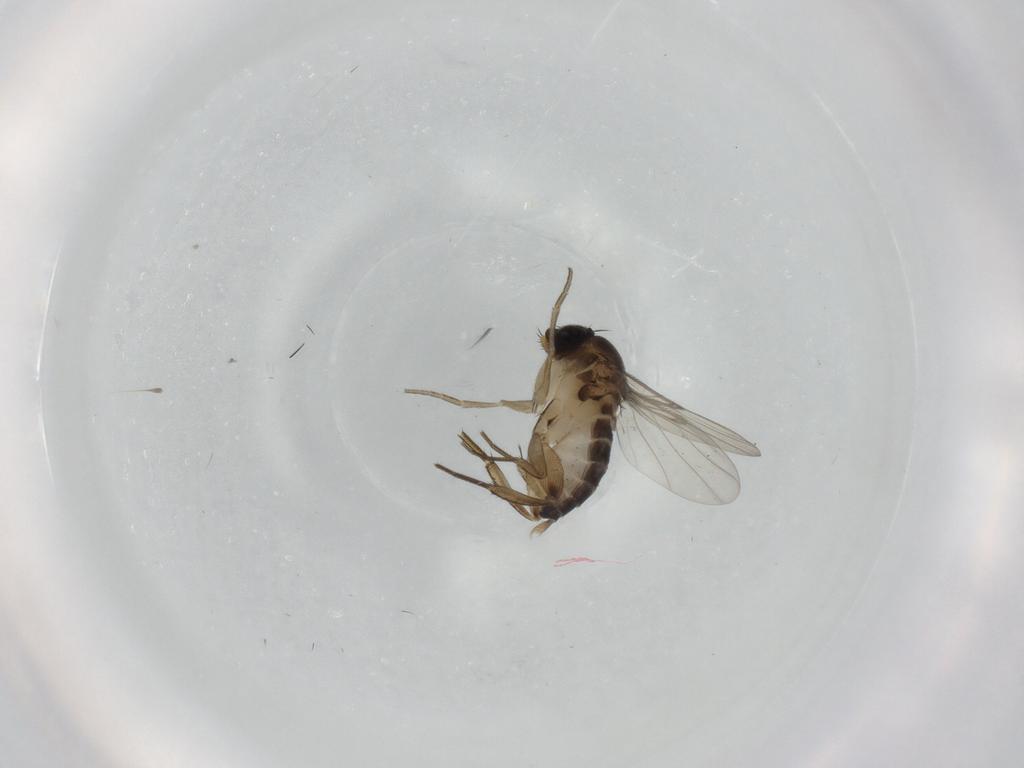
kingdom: Animalia
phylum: Arthropoda
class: Insecta
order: Diptera
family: Phoridae
